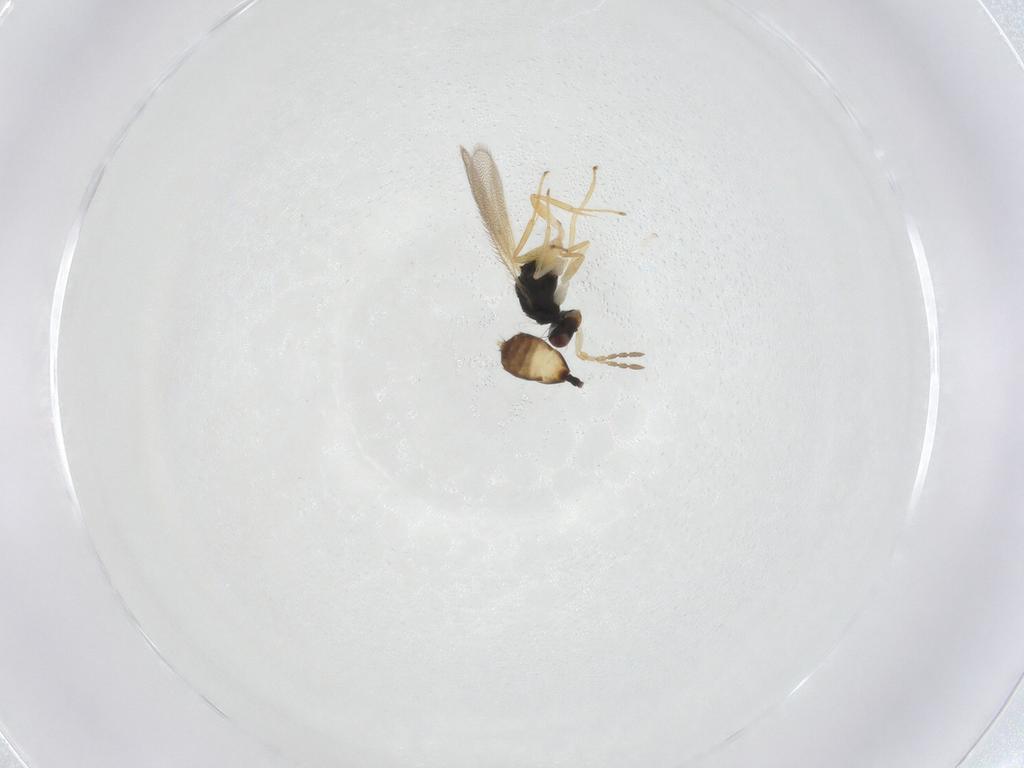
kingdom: Animalia
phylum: Arthropoda
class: Insecta
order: Hymenoptera
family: Eulophidae
